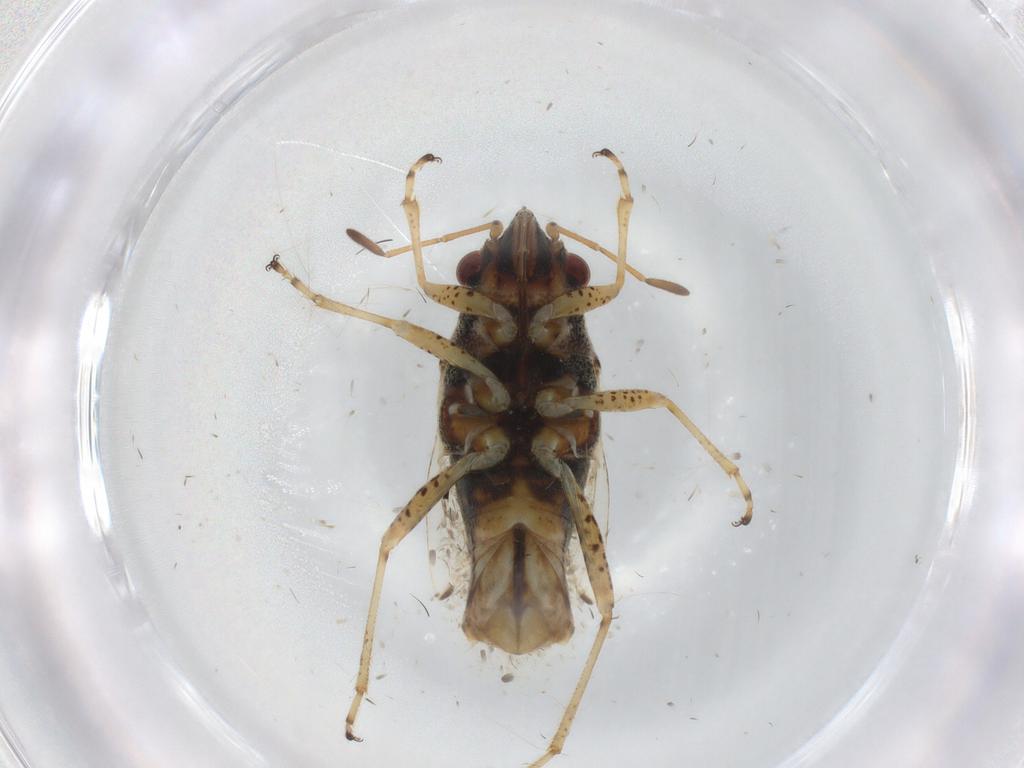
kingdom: Animalia
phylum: Arthropoda
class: Insecta
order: Hemiptera
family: Lygaeidae
